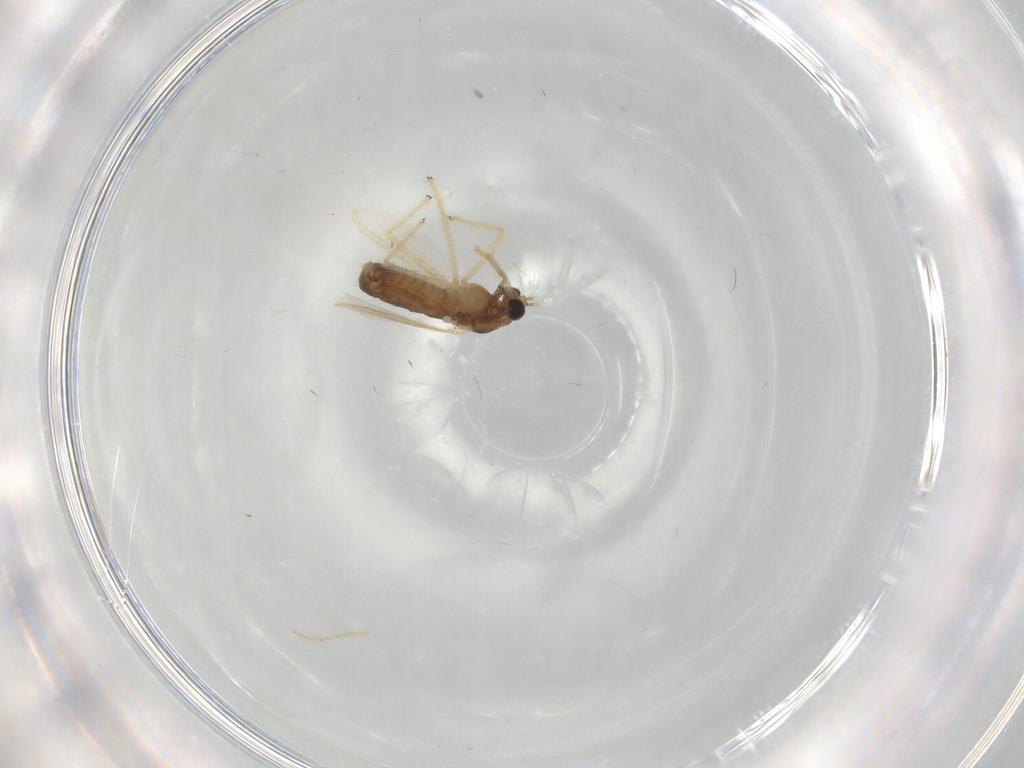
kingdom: Animalia
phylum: Arthropoda
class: Insecta
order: Diptera
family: Chironomidae
